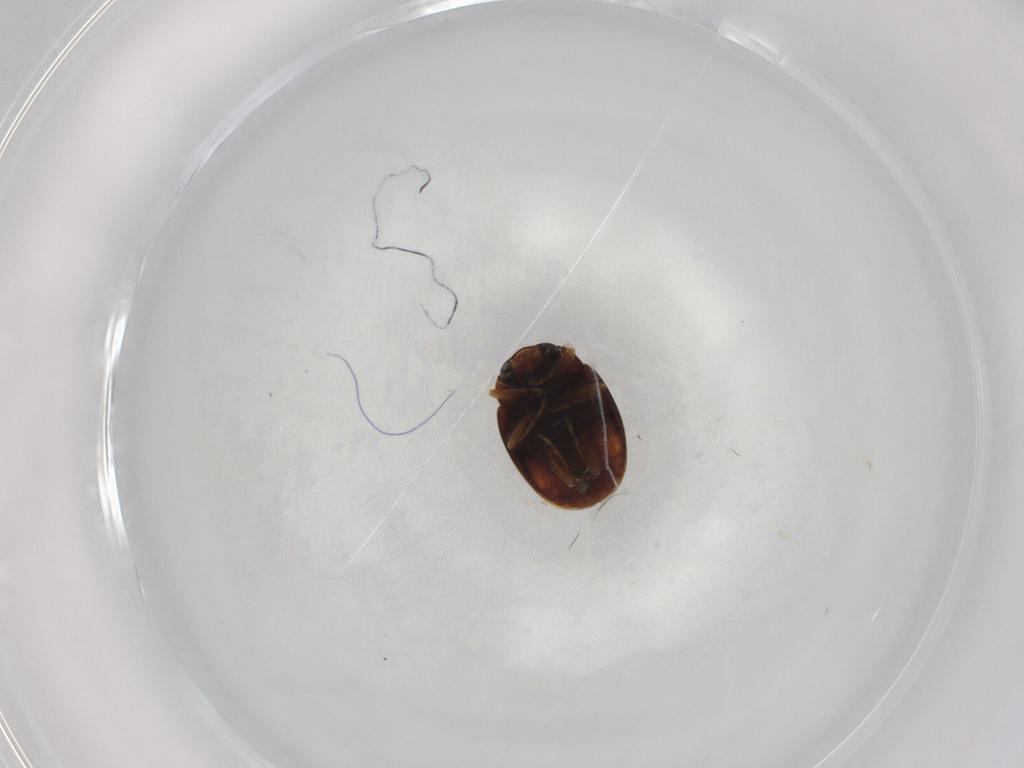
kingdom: Animalia
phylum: Arthropoda
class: Insecta
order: Coleoptera
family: Coccinellidae
